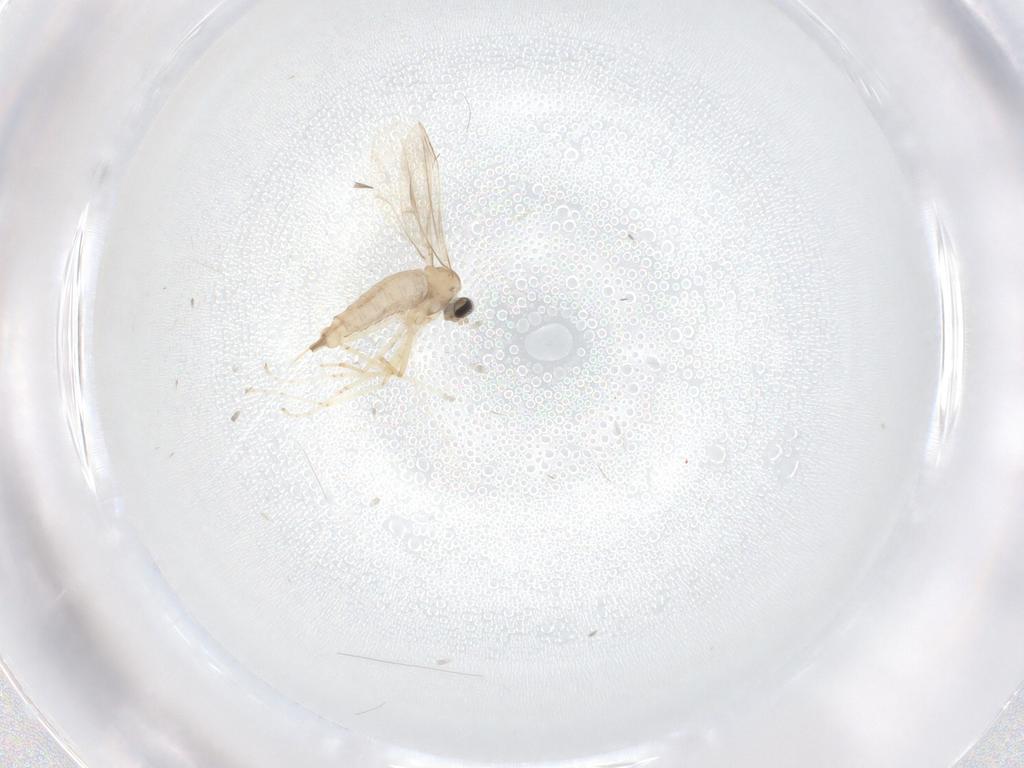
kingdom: Animalia
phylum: Arthropoda
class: Insecta
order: Diptera
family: Cecidomyiidae
